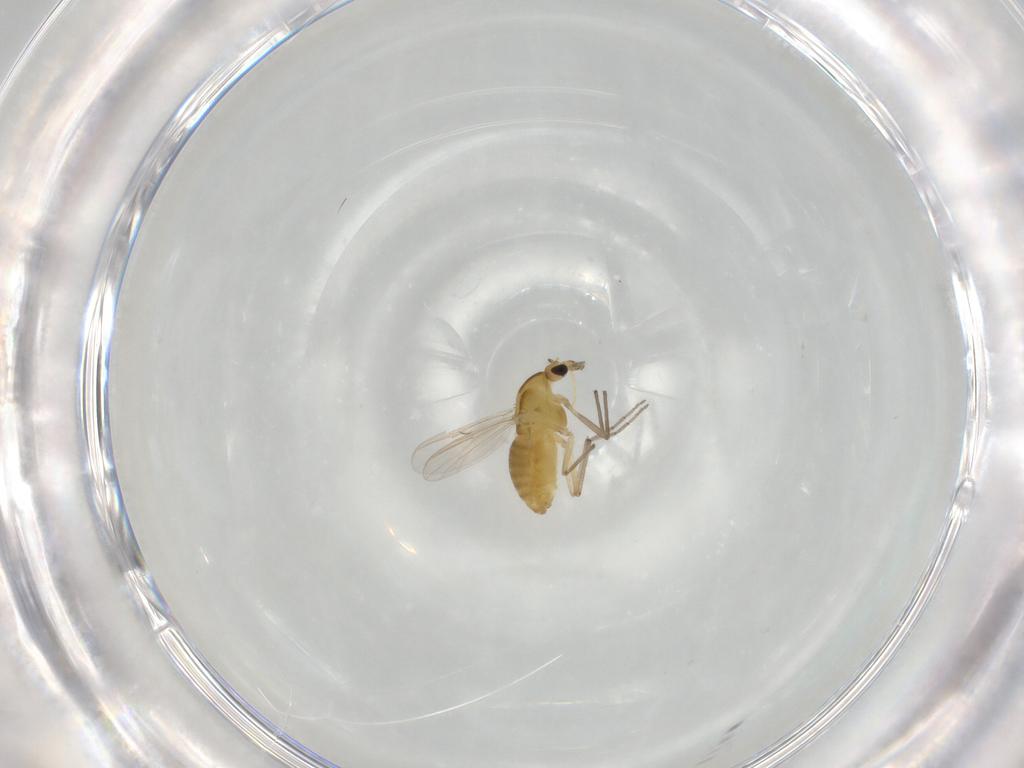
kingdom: Animalia
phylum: Arthropoda
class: Insecta
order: Diptera
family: Chironomidae
